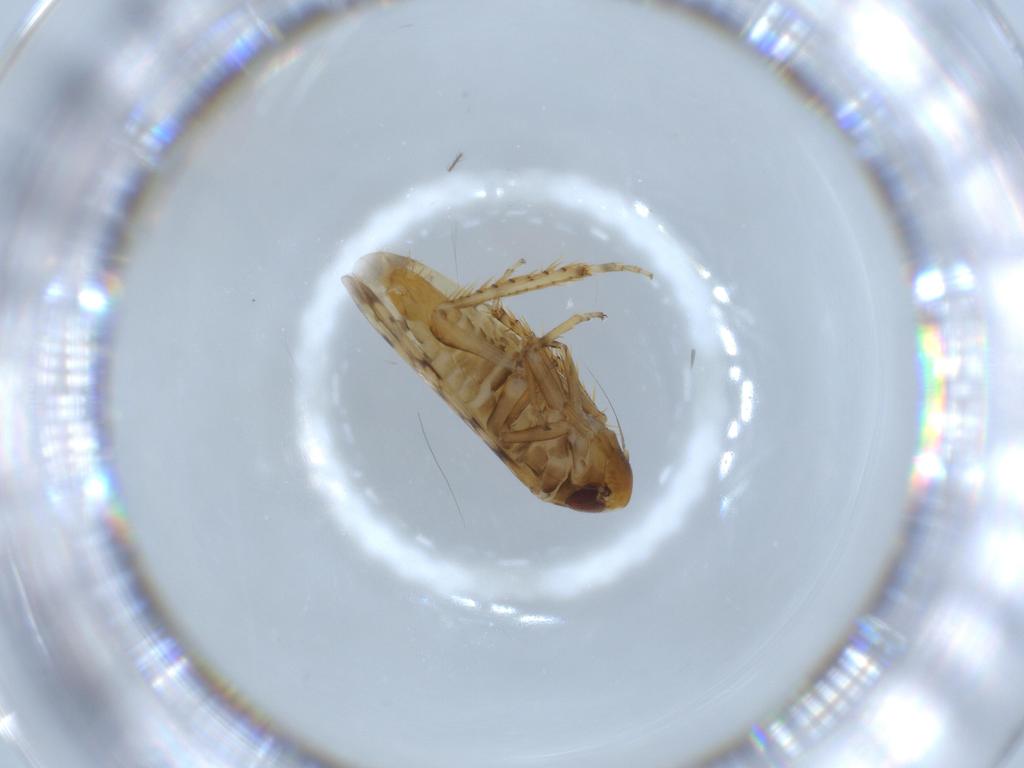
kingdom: Animalia
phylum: Arthropoda
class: Insecta
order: Hemiptera
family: Cicadellidae
